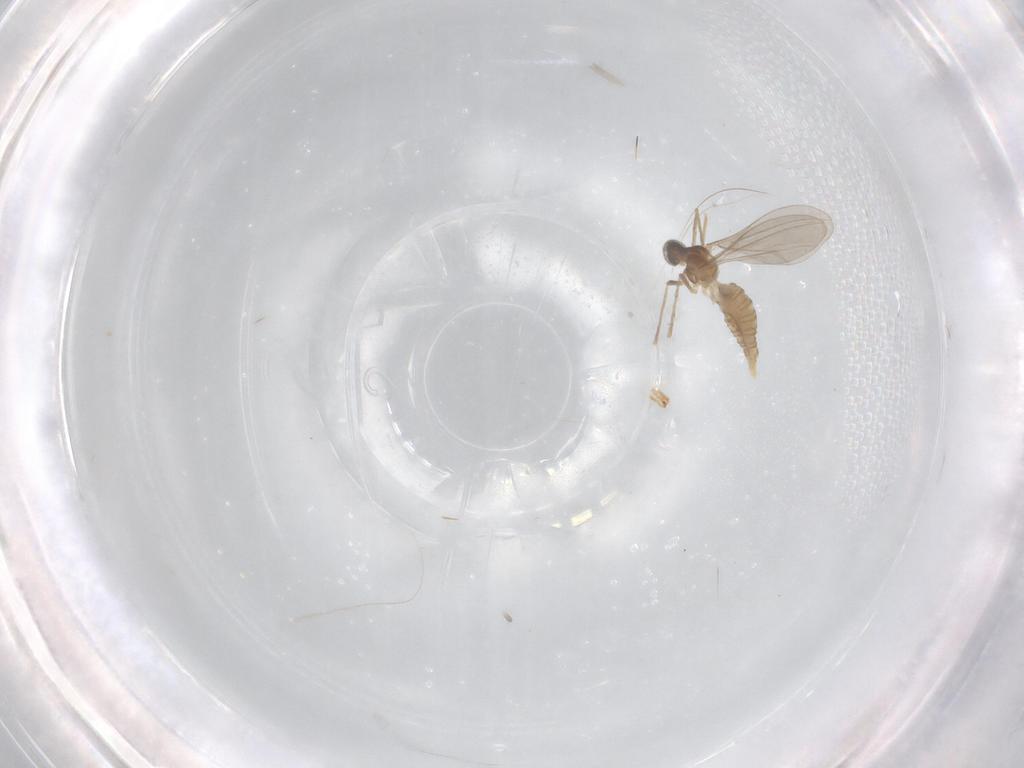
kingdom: Animalia
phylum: Arthropoda
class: Insecta
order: Diptera
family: Cecidomyiidae
